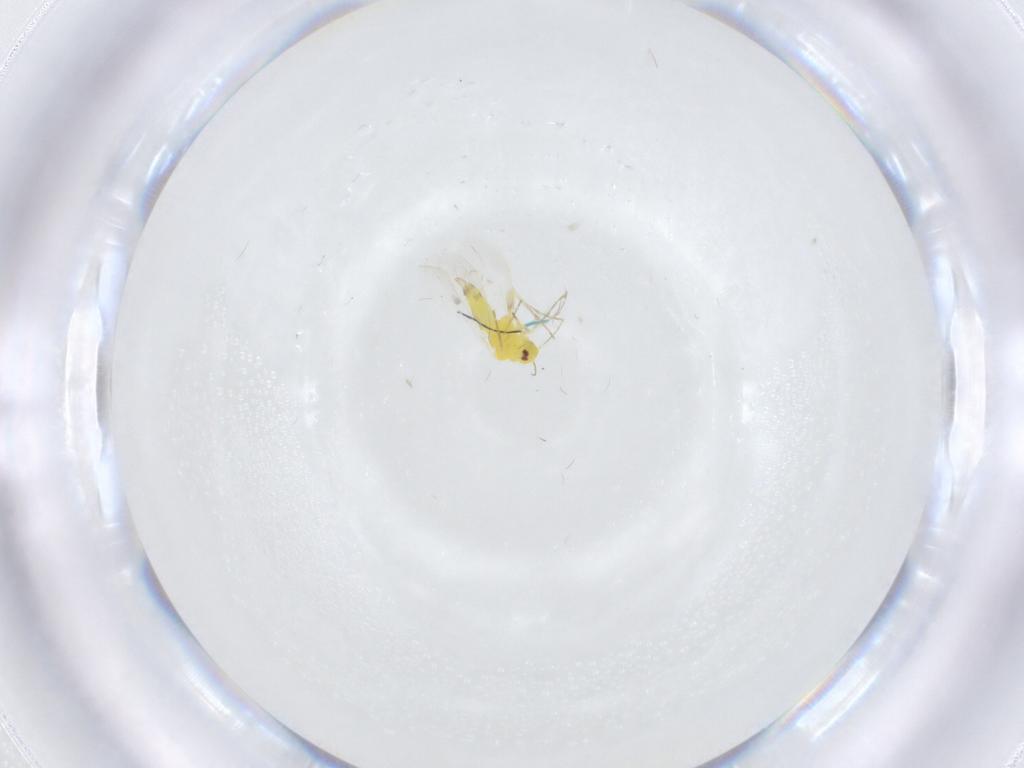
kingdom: Animalia
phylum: Arthropoda
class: Insecta
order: Hemiptera
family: Aleyrodidae
